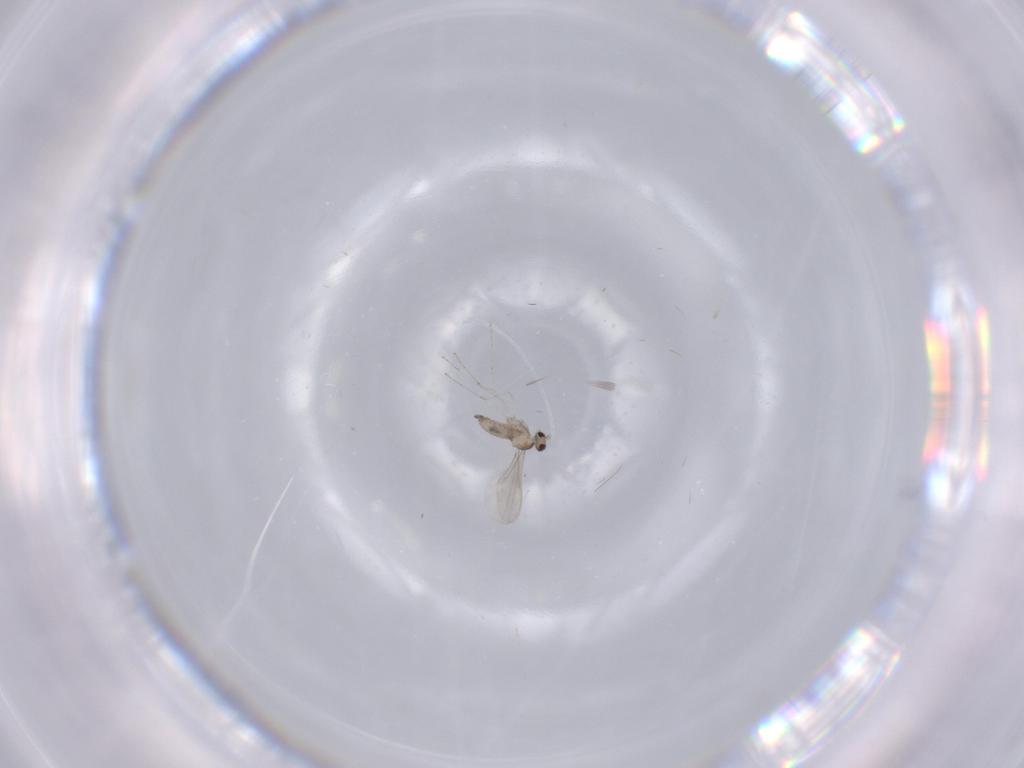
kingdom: Animalia
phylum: Arthropoda
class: Insecta
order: Diptera
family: Cecidomyiidae
